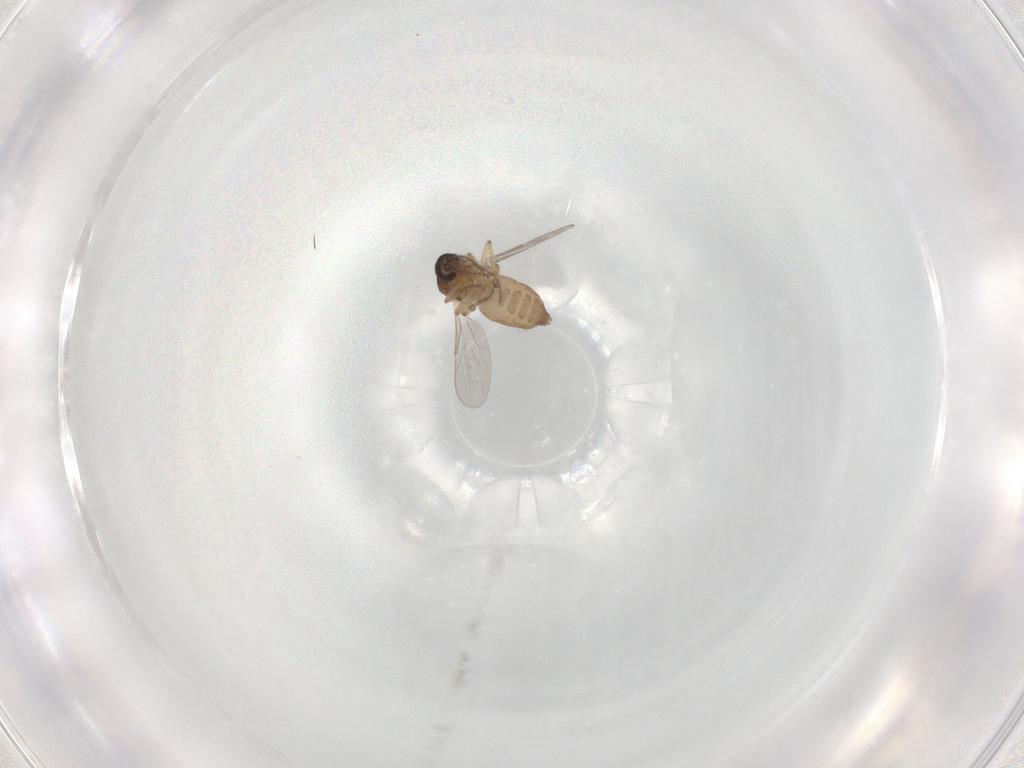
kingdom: Animalia
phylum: Arthropoda
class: Insecta
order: Diptera
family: Dolichopodidae
